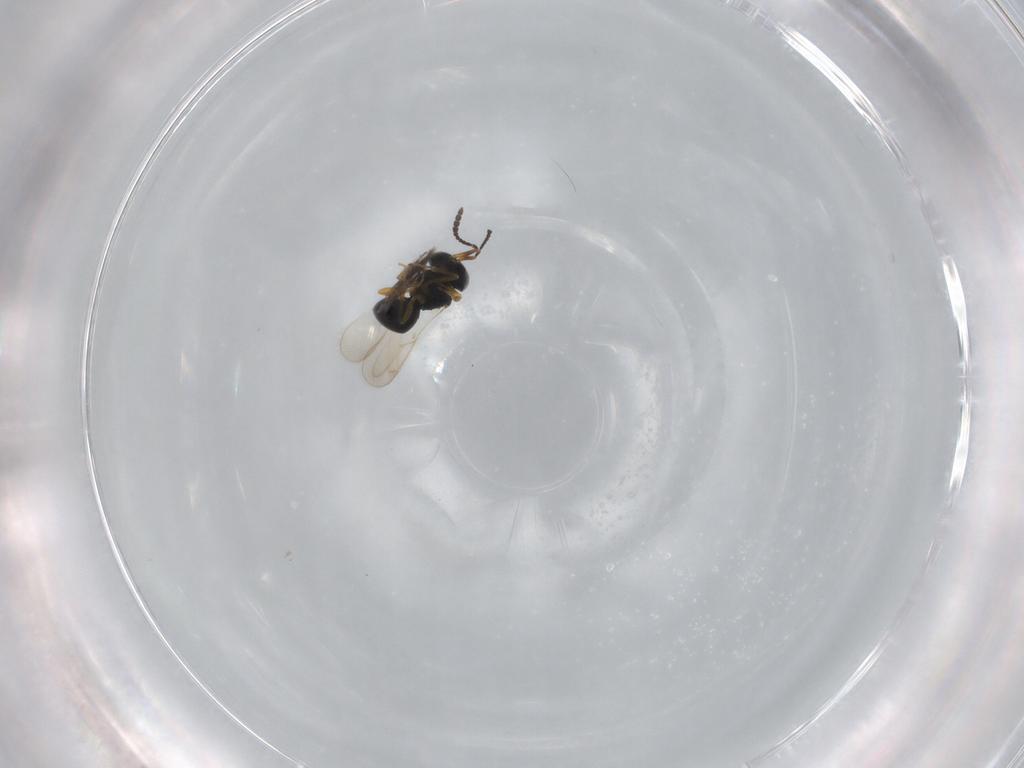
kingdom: Animalia
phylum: Arthropoda
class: Insecta
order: Hymenoptera
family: Scelionidae
